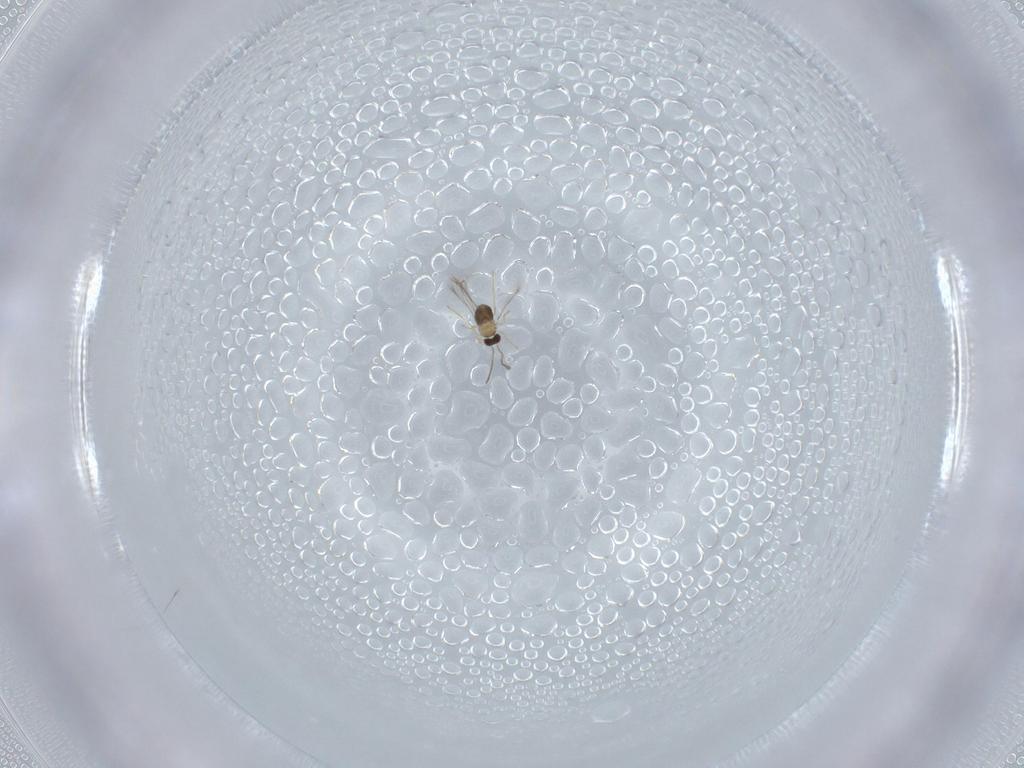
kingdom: Animalia
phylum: Arthropoda
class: Insecta
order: Hymenoptera
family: Mymaridae
